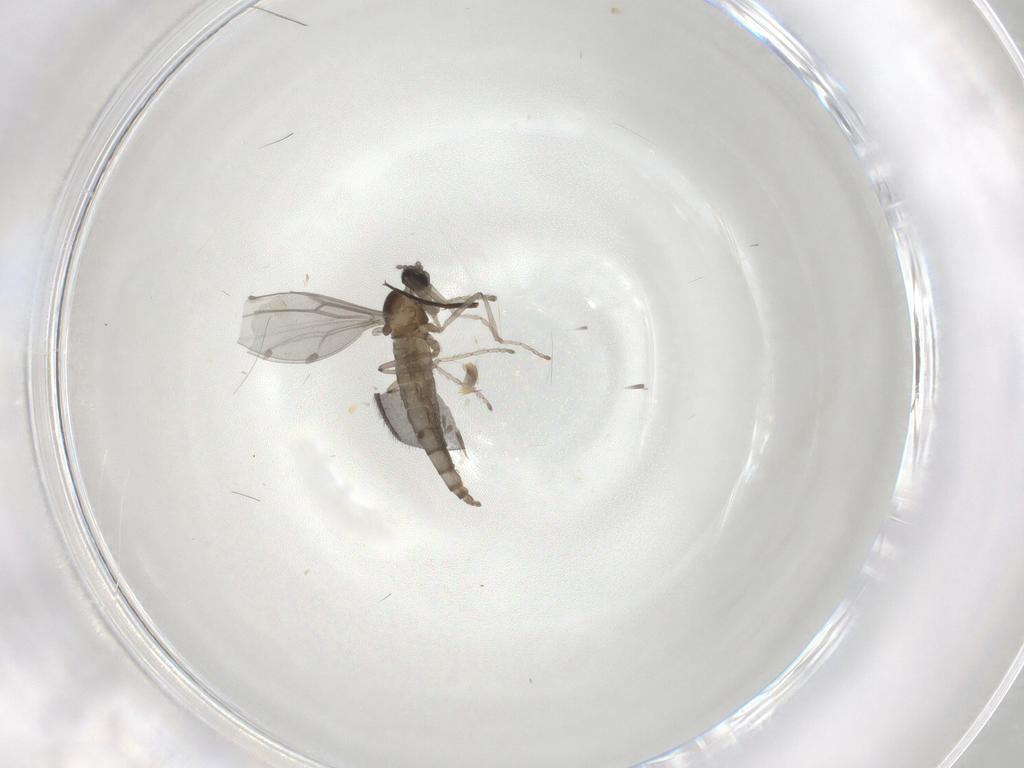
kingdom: Animalia
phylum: Arthropoda
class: Insecta
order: Diptera
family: Cecidomyiidae
